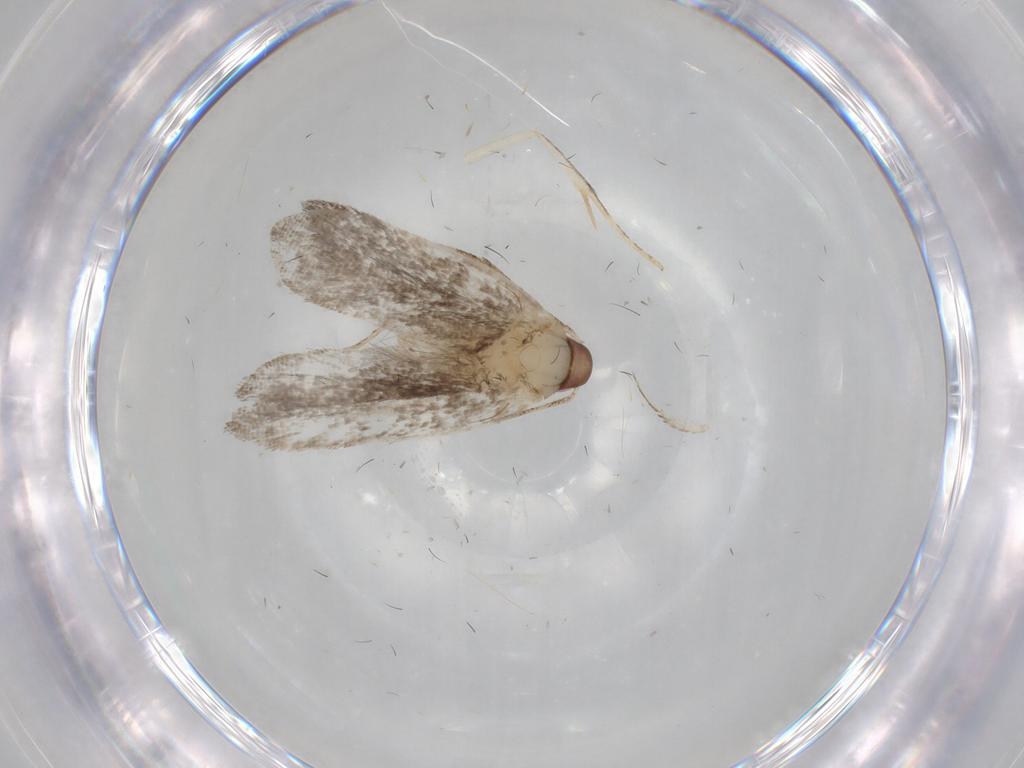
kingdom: Animalia
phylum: Arthropoda
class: Insecta
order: Lepidoptera
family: Gelechiidae
